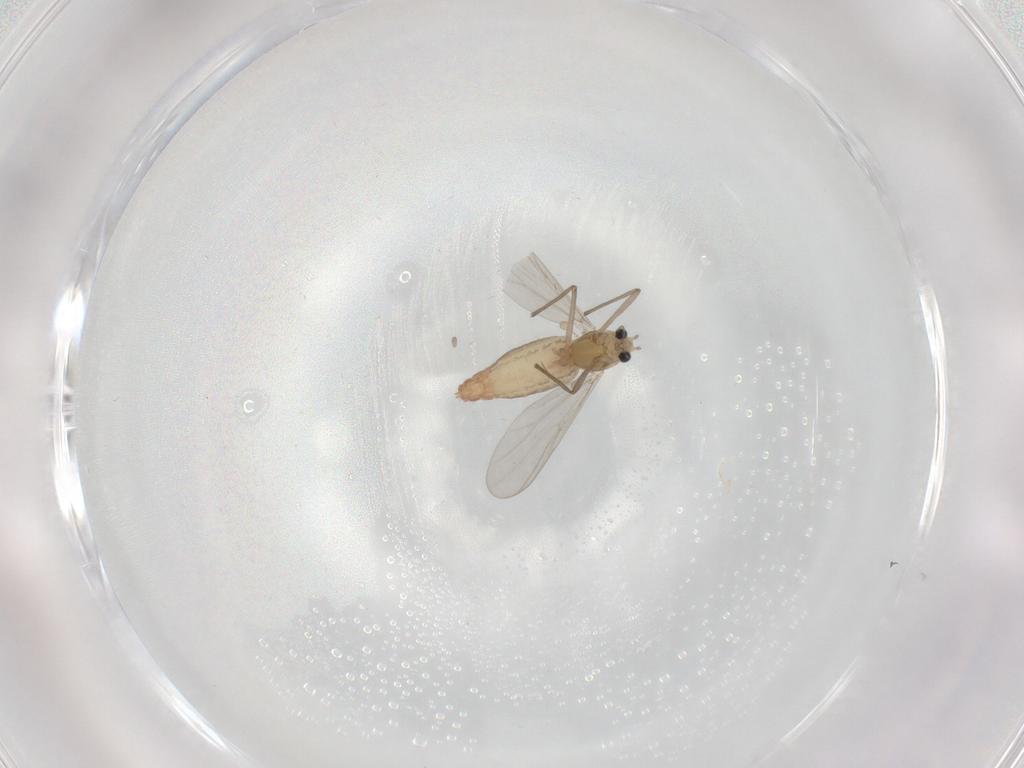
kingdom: Animalia
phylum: Arthropoda
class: Insecta
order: Diptera
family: Chironomidae
